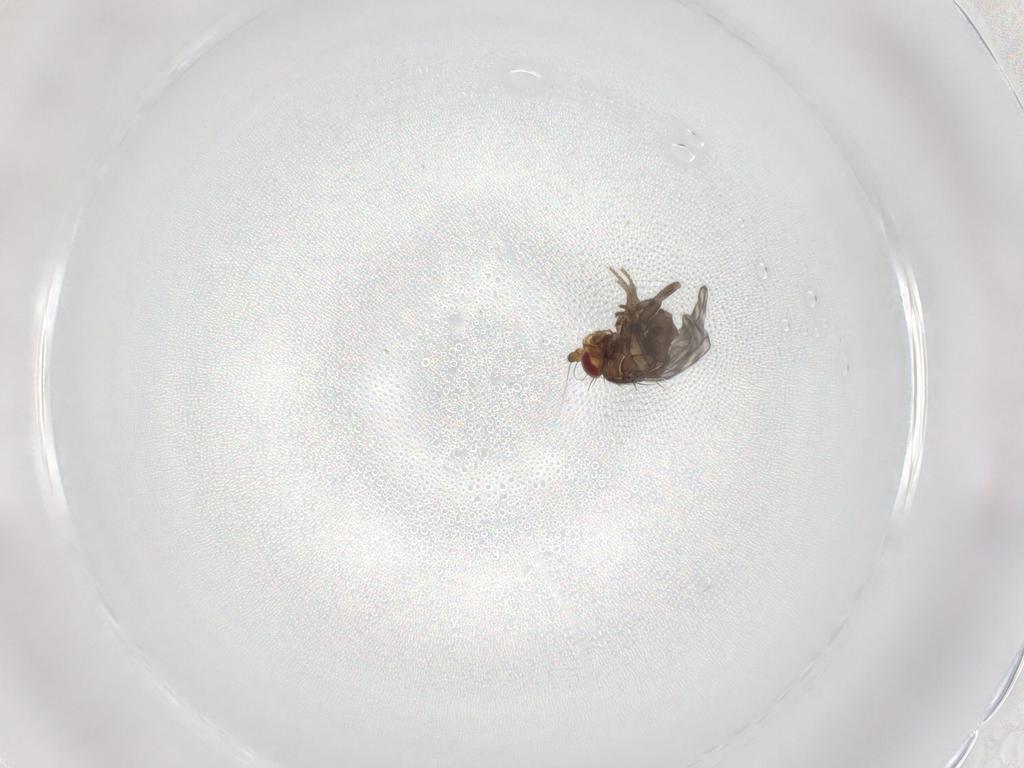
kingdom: Animalia
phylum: Arthropoda
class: Insecta
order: Diptera
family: Sphaeroceridae
